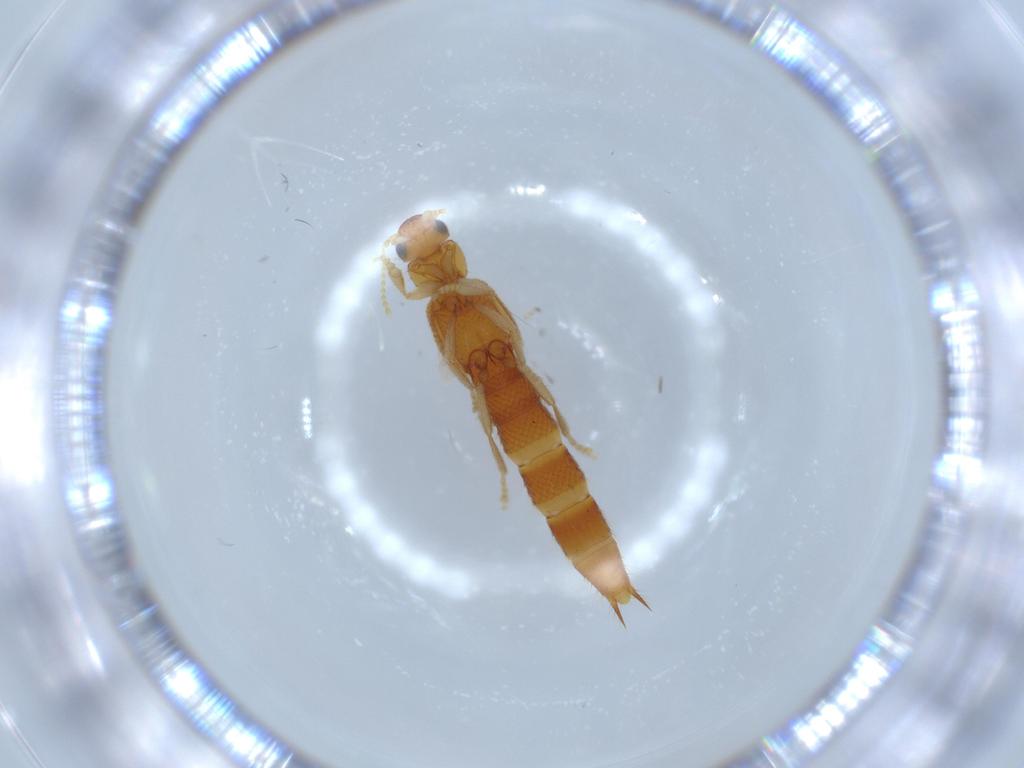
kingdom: Animalia
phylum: Arthropoda
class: Insecta
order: Coleoptera
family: Staphylinidae
